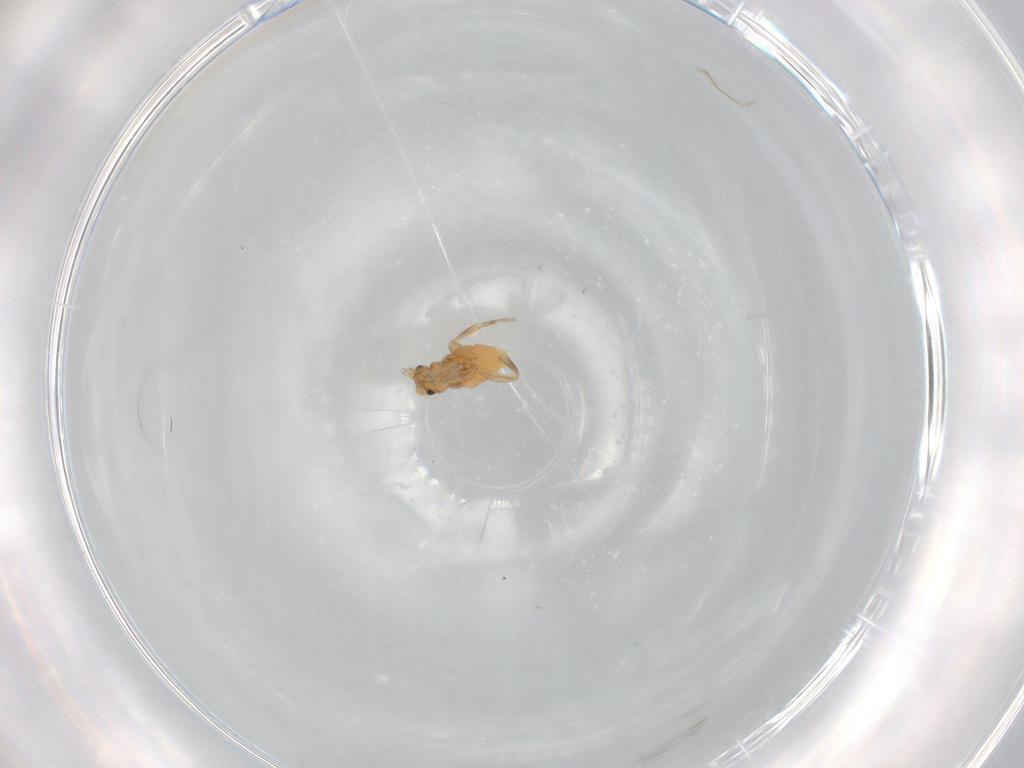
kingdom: Animalia
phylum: Arthropoda
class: Insecta
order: Diptera
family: Phoridae
